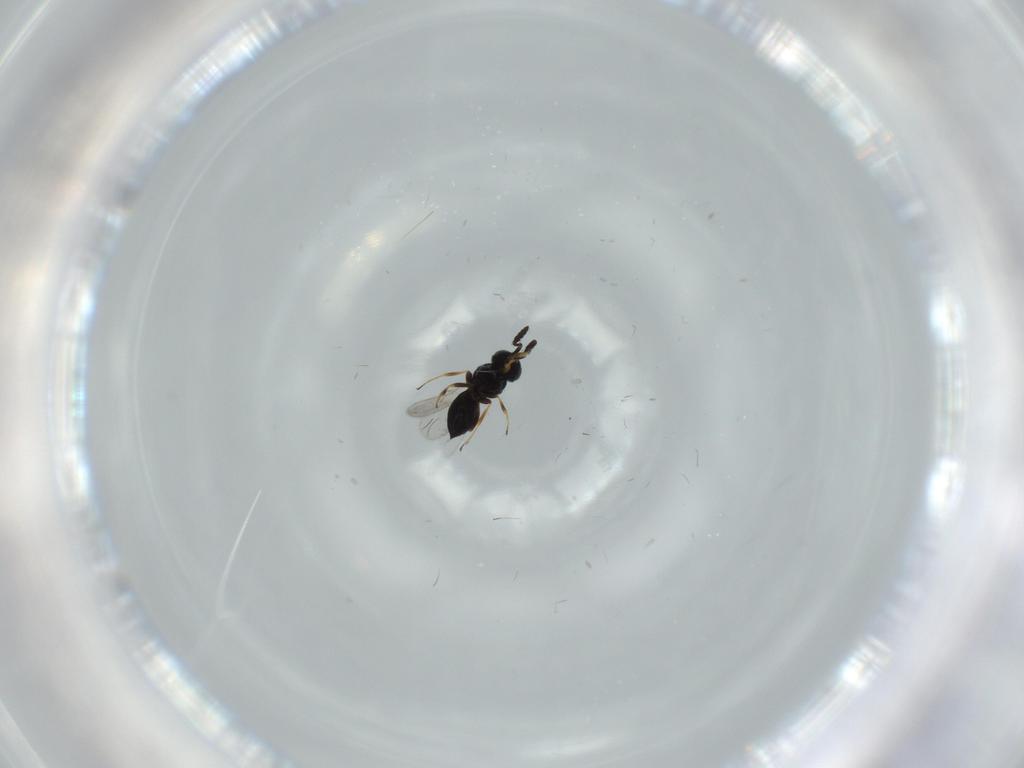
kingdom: Animalia
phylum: Arthropoda
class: Insecta
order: Hymenoptera
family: Scelionidae
